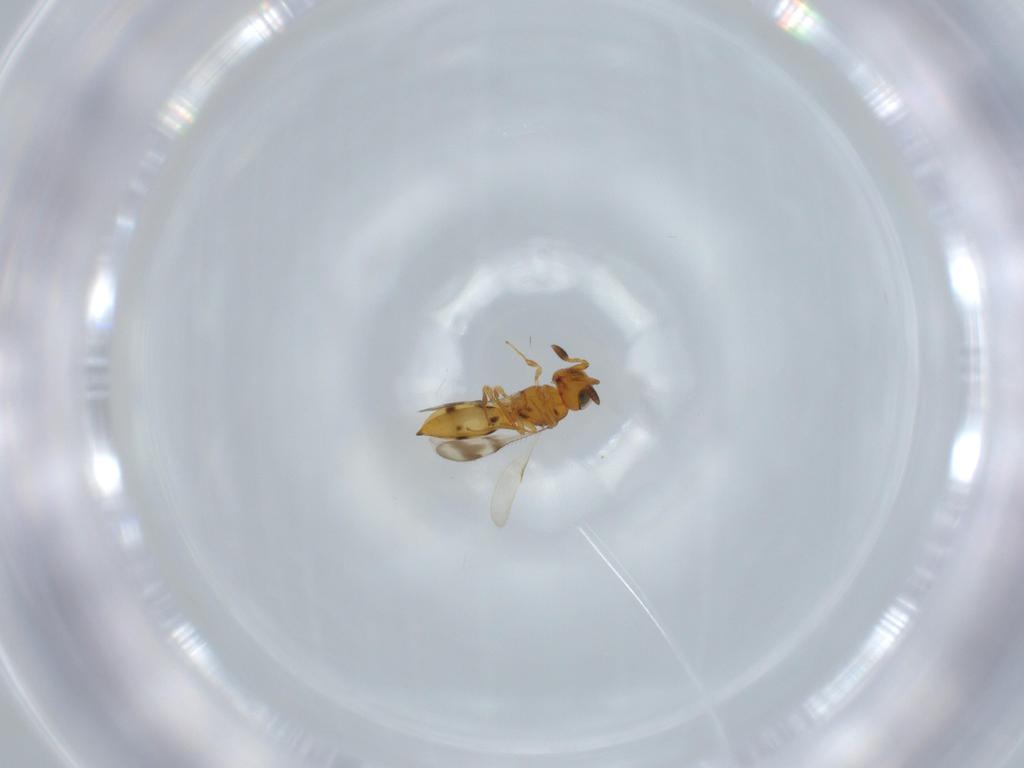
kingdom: Animalia
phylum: Arthropoda
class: Insecta
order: Hymenoptera
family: Scelionidae
